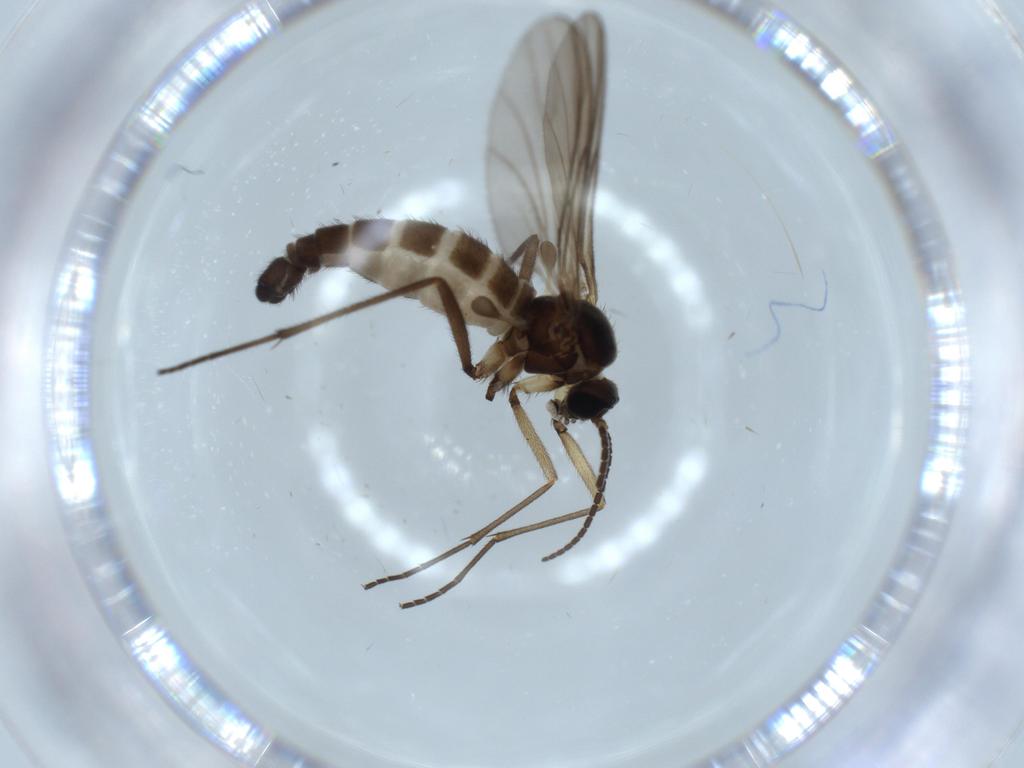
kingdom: Animalia
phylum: Arthropoda
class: Insecta
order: Diptera
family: Sciaridae
